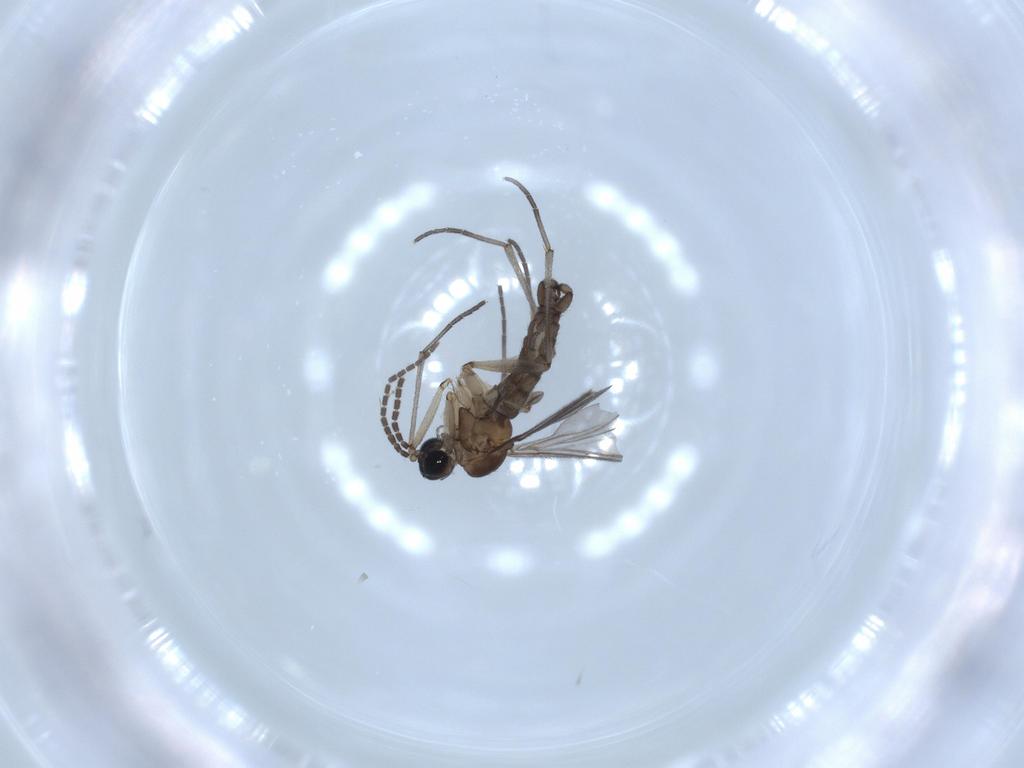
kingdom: Animalia
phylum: Arthropoda
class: Insecta
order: Diptera
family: Sciaridae
